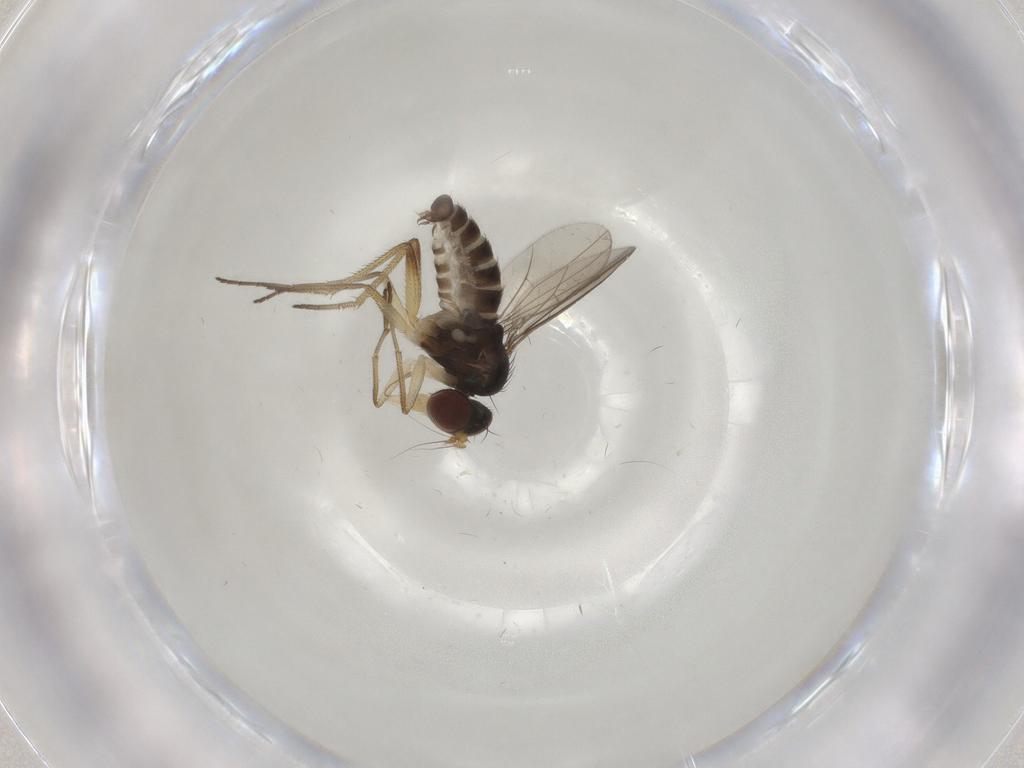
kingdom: Animalia
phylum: Arthropoda
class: Insecta
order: Diptera
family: Dolichopodidae
